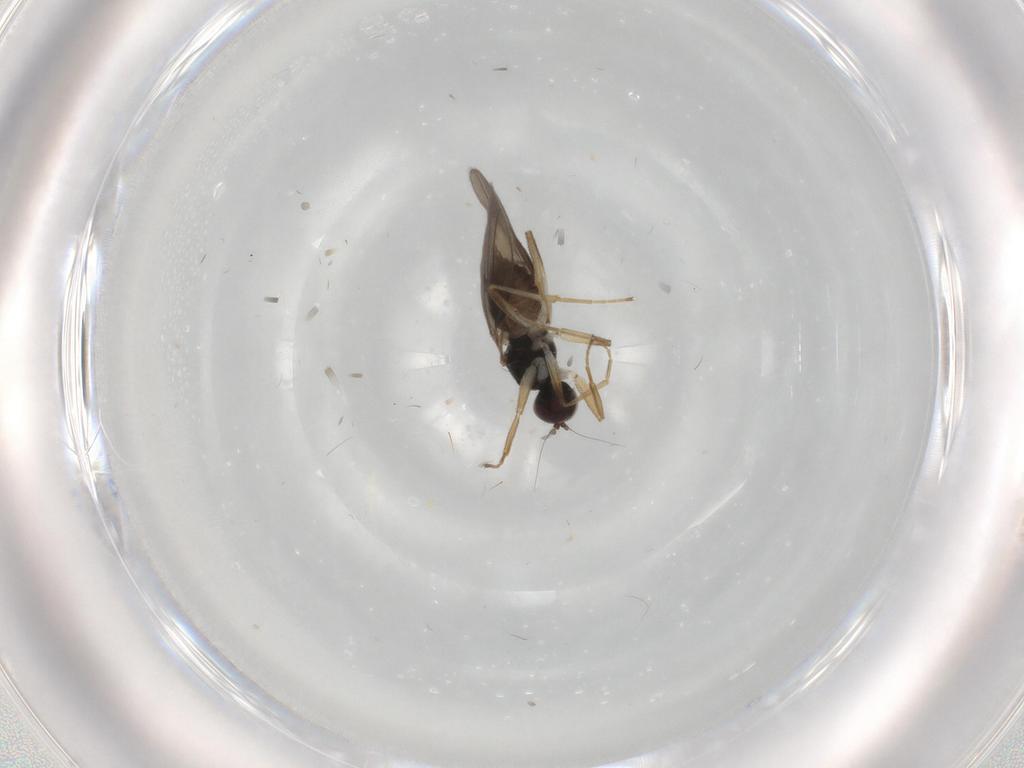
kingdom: Animalia
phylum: Arthropoda
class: Insecta
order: Diptera
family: Hybotidae
